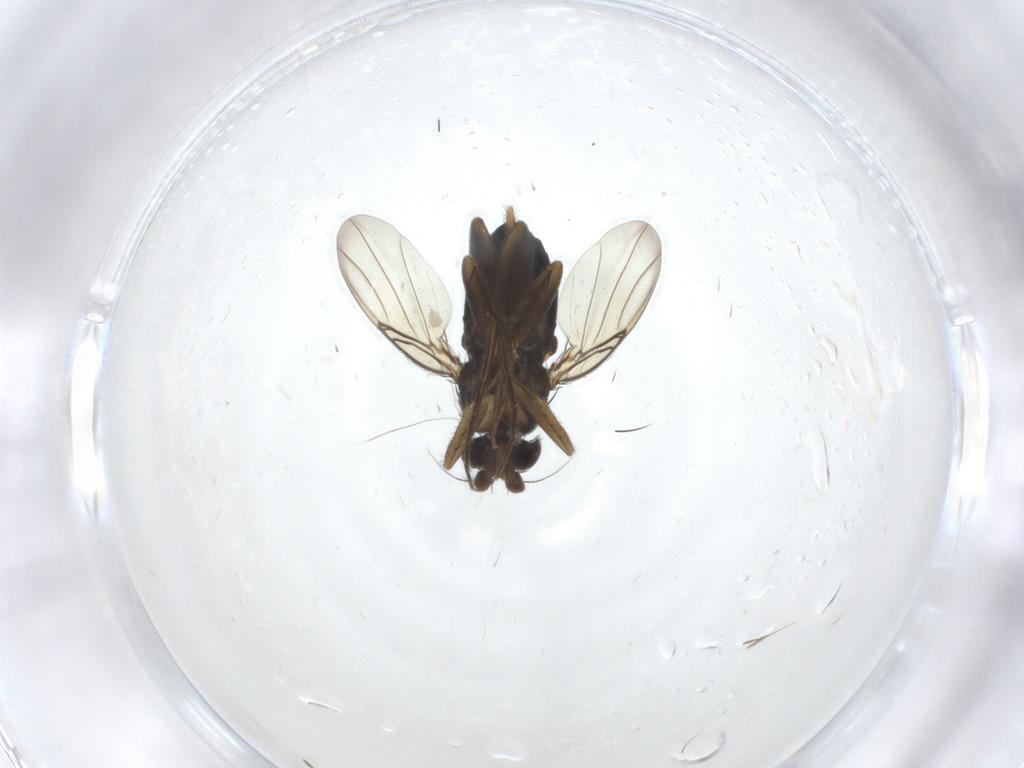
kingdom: Animalia
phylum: Arthropoda
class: Insecta
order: Diptera
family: Phoridae
